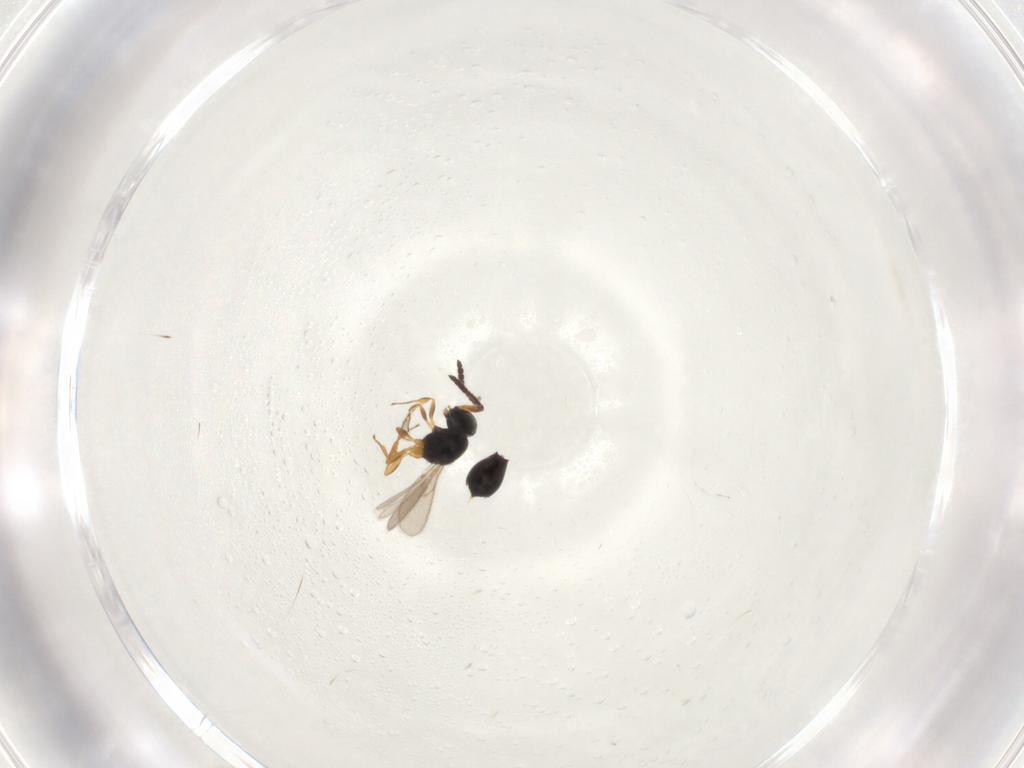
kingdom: Animalia
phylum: Arthropoda
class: Insecta
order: Hymenoptera
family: Scelionidae
